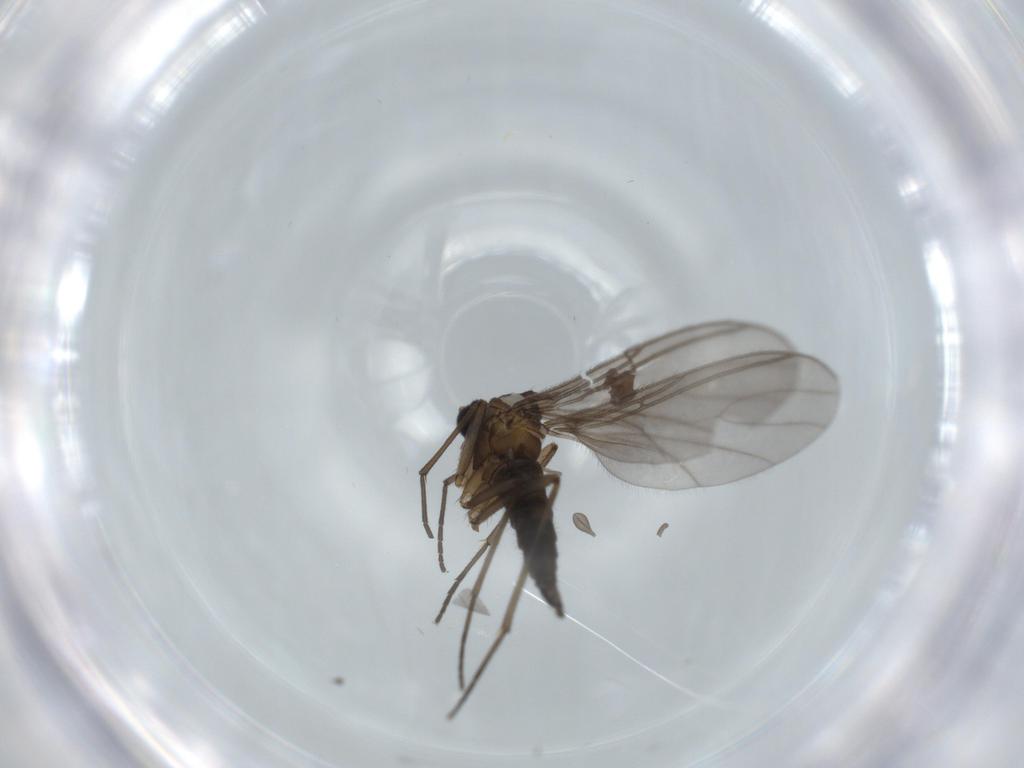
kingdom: Animalia
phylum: Arthropoda
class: Insecta
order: Diptera
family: Sciaridae
